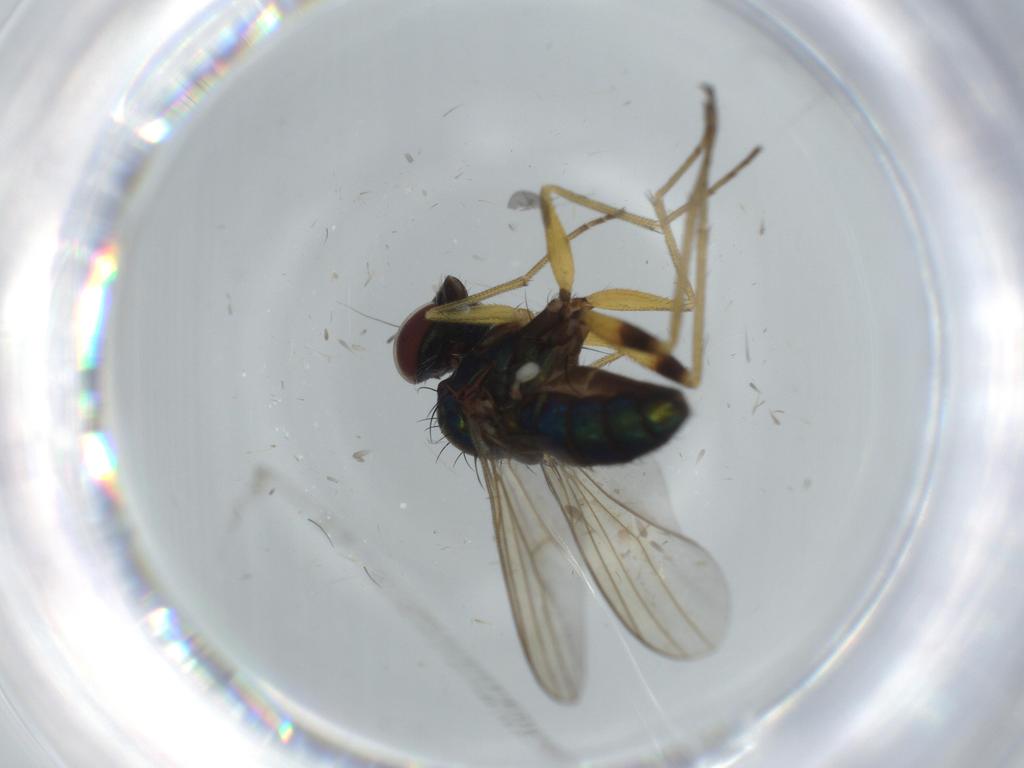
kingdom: Animalia
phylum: Arthropoda
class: Insecta
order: Diptera
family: Dolichopodidae
